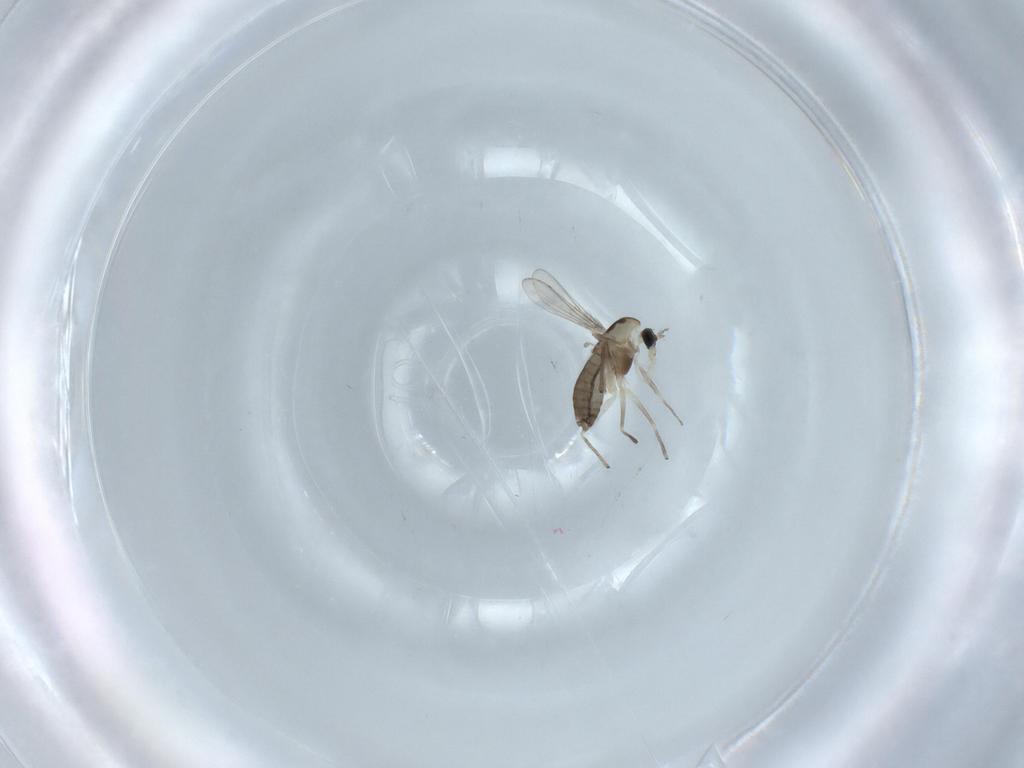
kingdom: Animalia
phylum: Arthropoda
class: Insecta
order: Diptera
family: Chironomidae
